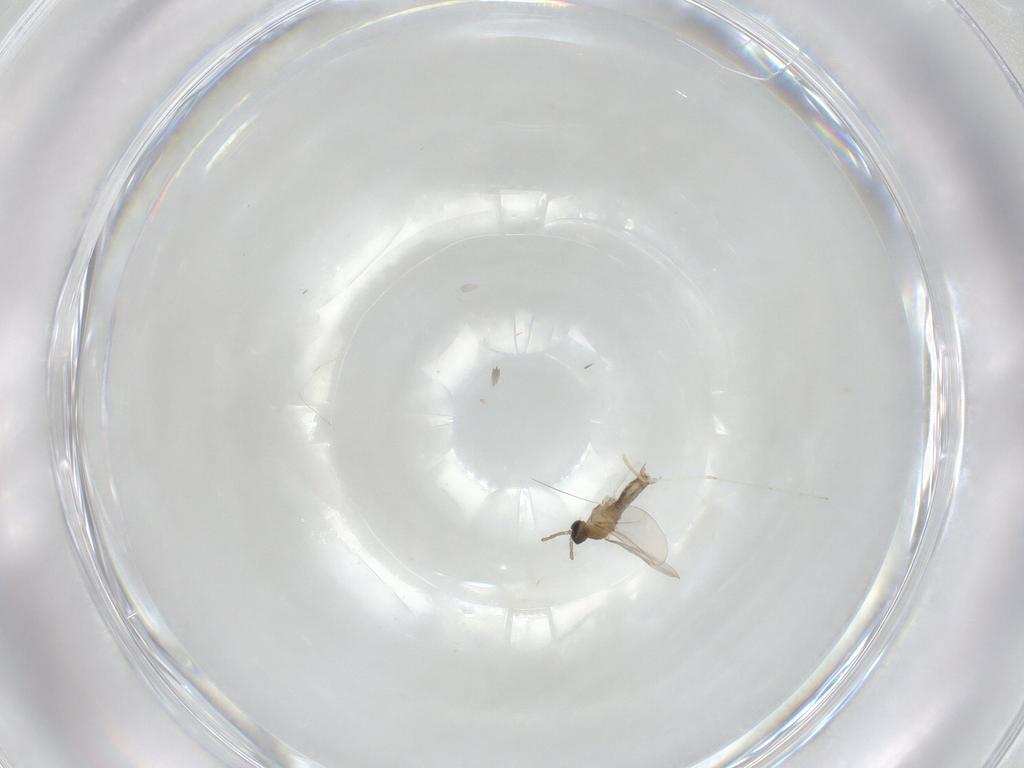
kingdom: Animalia
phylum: Arthropoda
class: Insecta
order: Diptera
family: Cecidomyiidae
